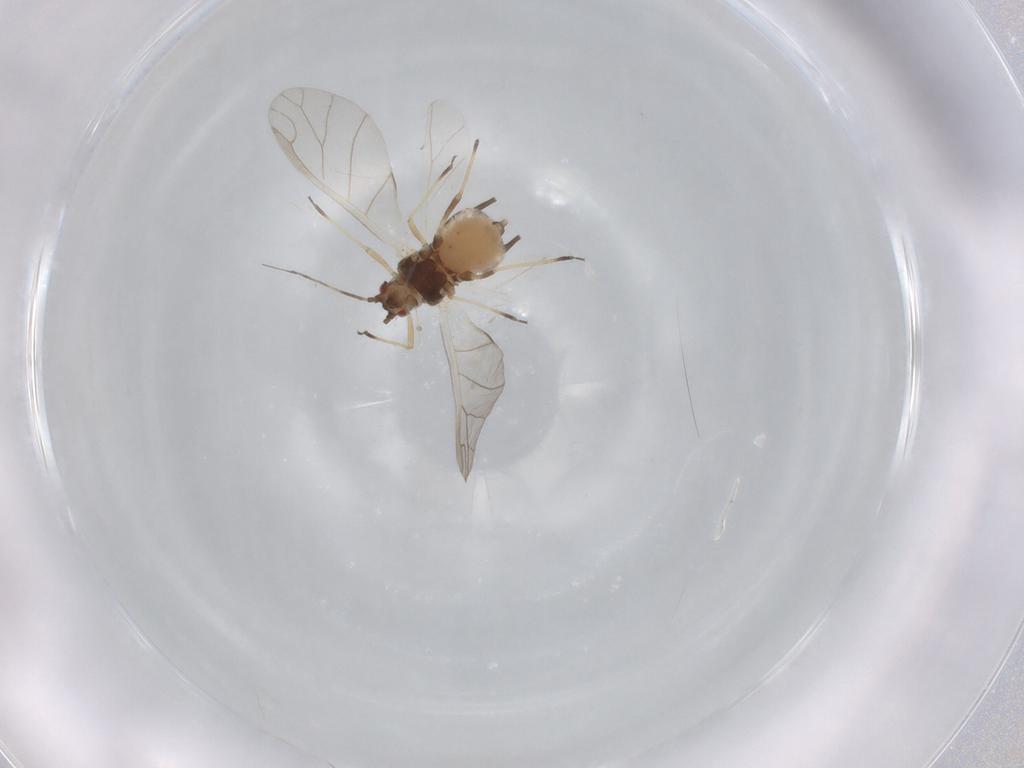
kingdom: Animalia
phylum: Arthropoda
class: Insecta
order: Hemiptera
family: Aphididae
